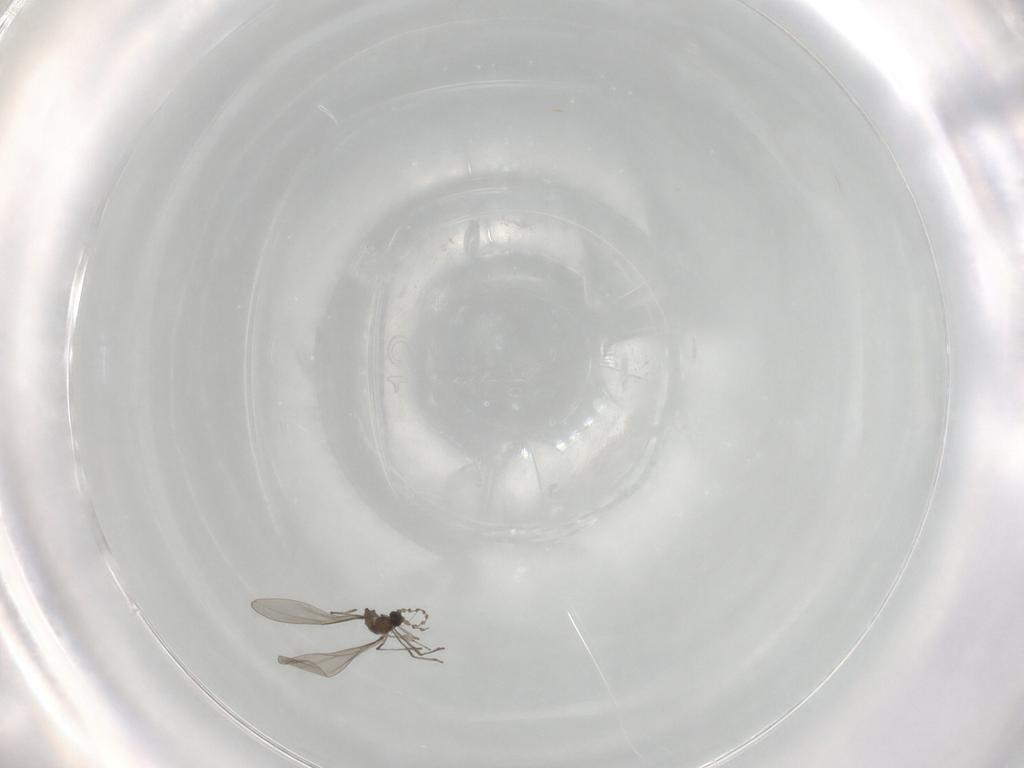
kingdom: Animalia
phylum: Arthropoda
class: Insecta
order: Diptera
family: Cecidomyiidae
